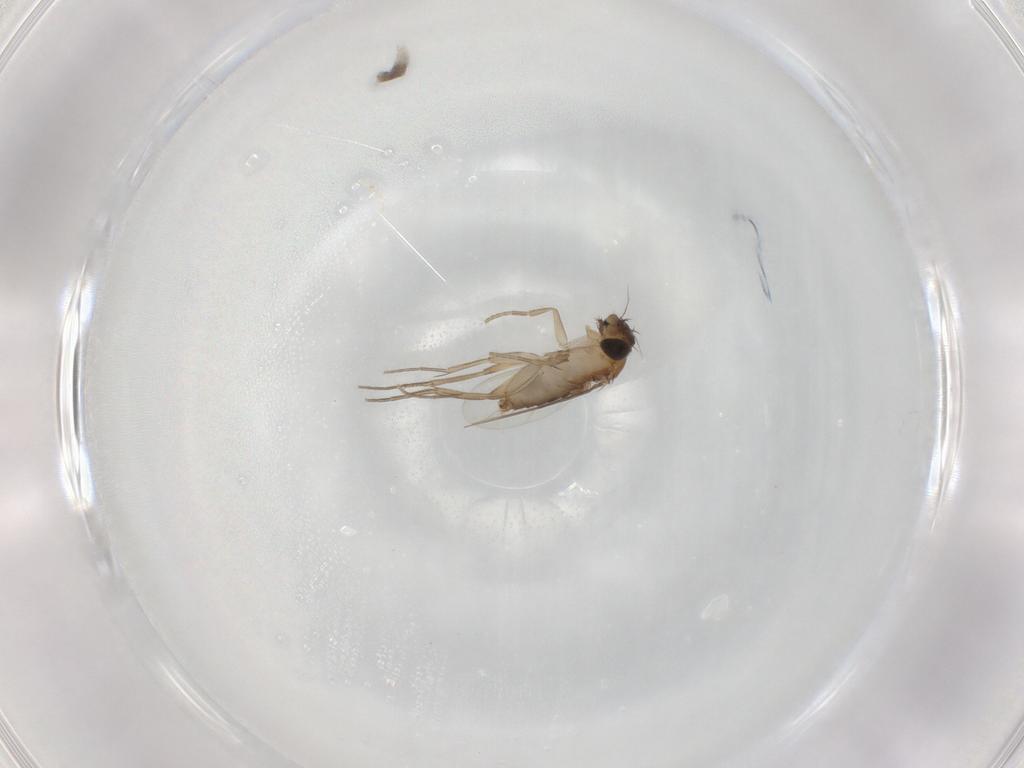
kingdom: Animalia
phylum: Arthropoda
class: Insecta
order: Diptera
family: Phoridae
